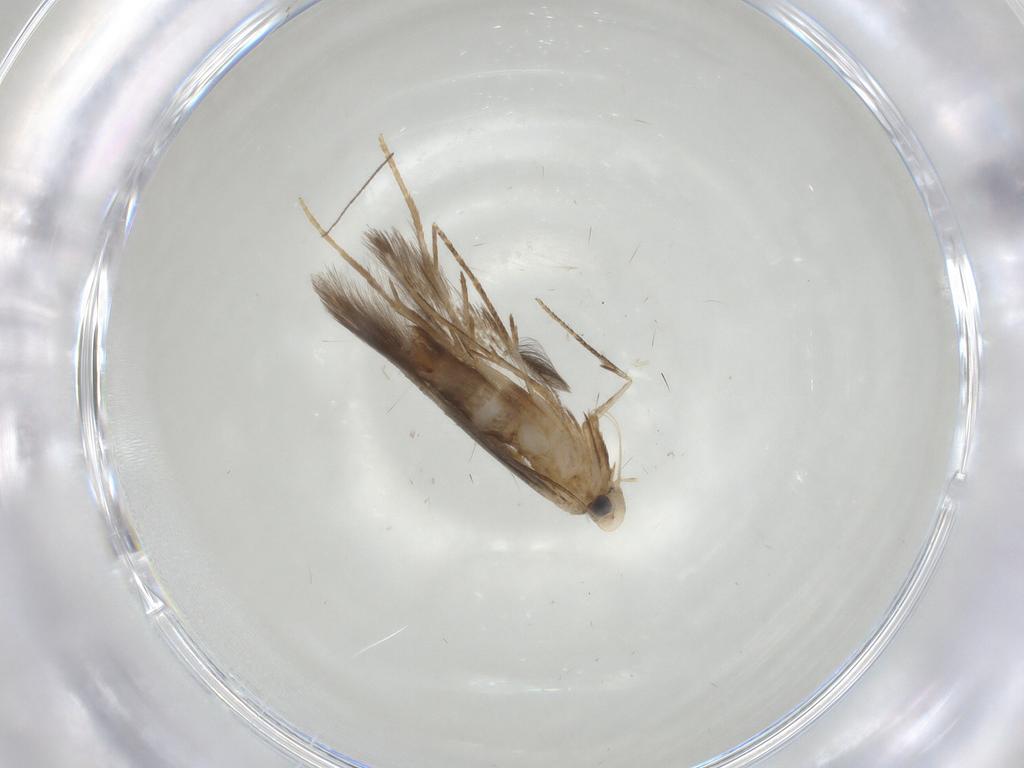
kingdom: Animalia
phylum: Arthropoda
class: Insecta
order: Lepidoptera
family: Tischeriidae
